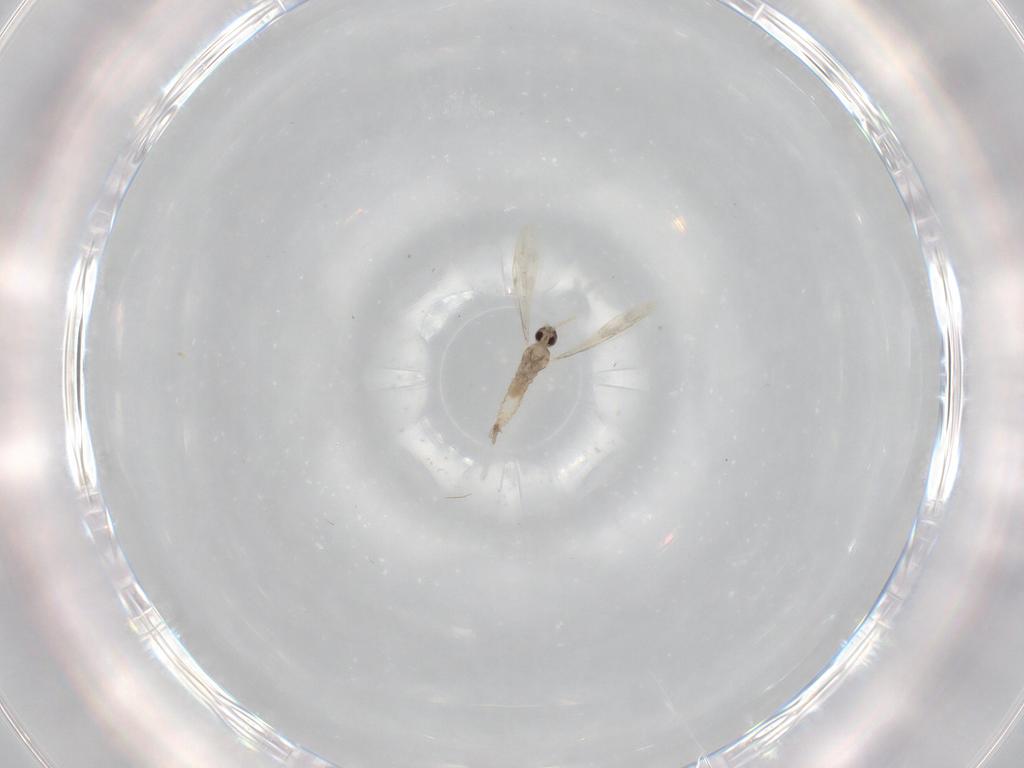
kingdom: Animalia
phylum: Arthropoda
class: Insecta
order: Diptera
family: Cecidomyiidae
